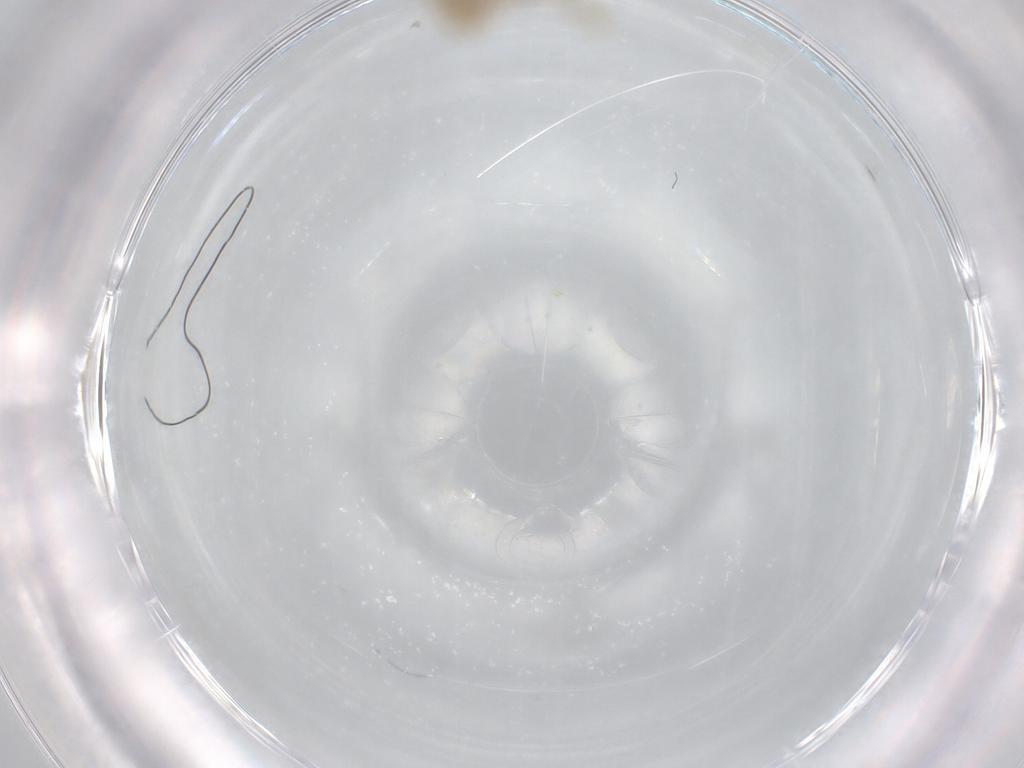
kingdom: Animalia
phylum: Arthropoda
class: Insecta
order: Diptera
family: Chironomidae
